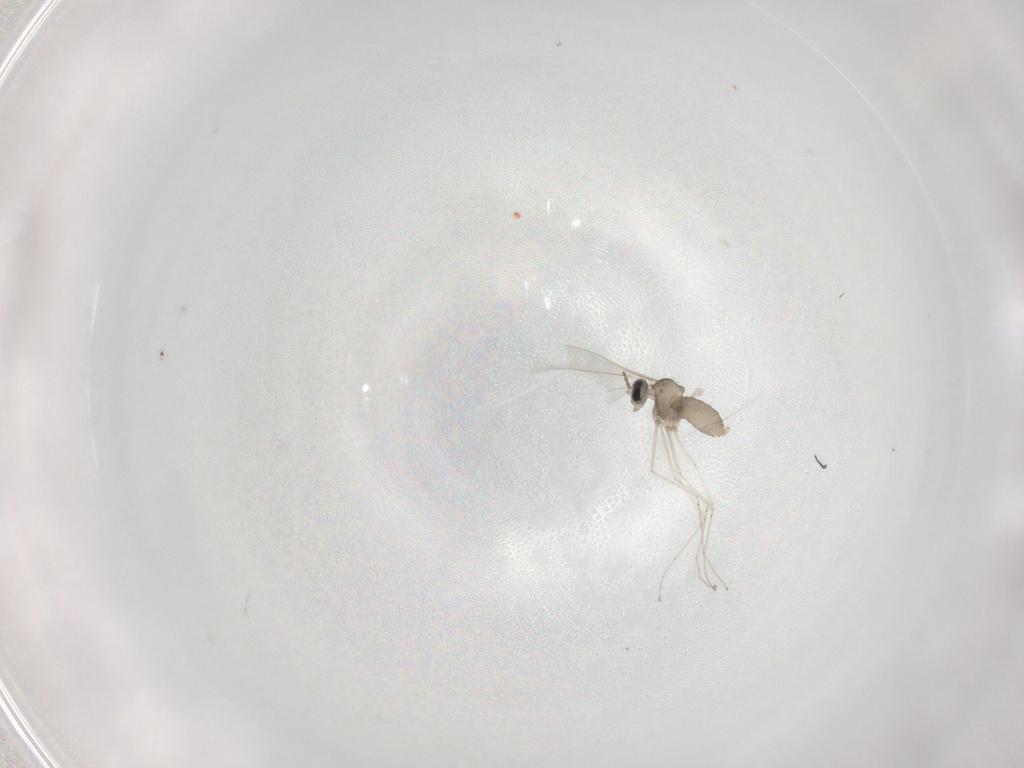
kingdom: Animalia
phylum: Arthropoda
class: Insecta
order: Diptera
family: Cecidomyiidae
